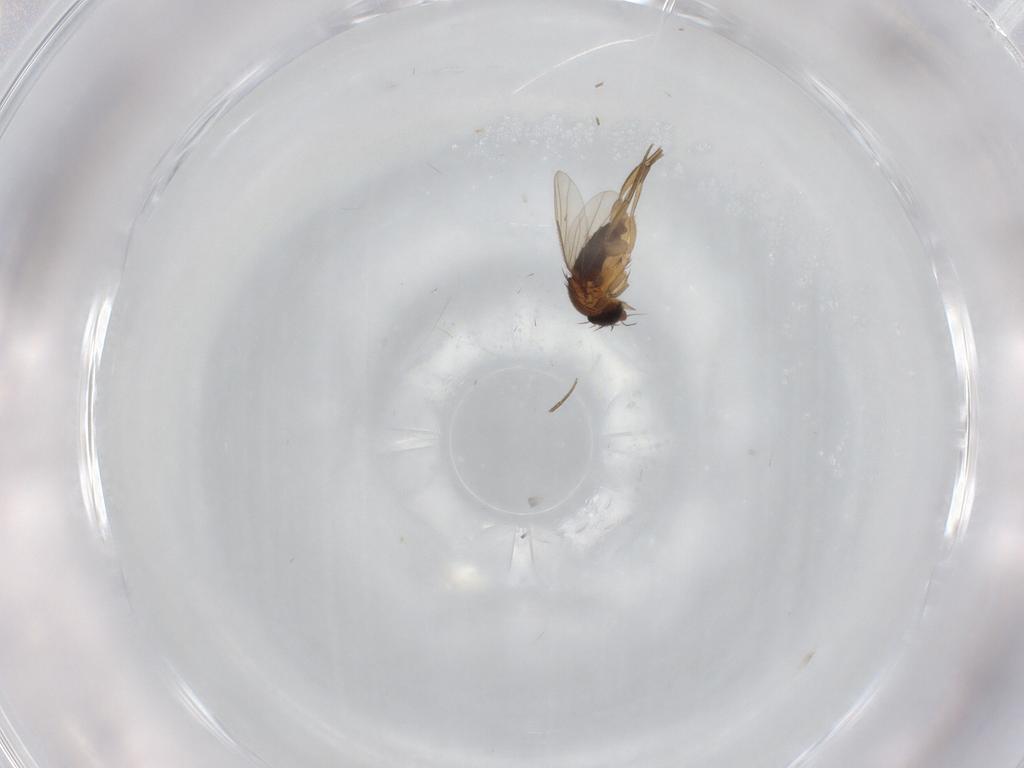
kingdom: Animalia
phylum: Arthropoda
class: Insecta
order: Diptera
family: Phoridae
